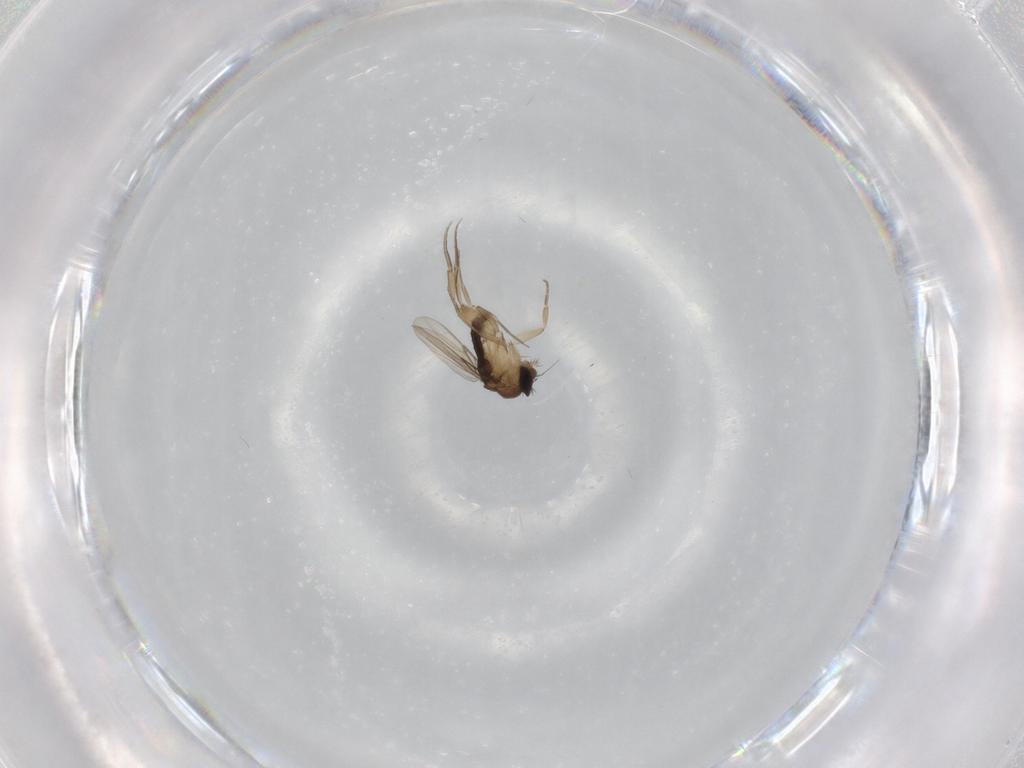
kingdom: Animalia
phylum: Arthropoda
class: Insecta
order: Diptera
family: Phoridae
